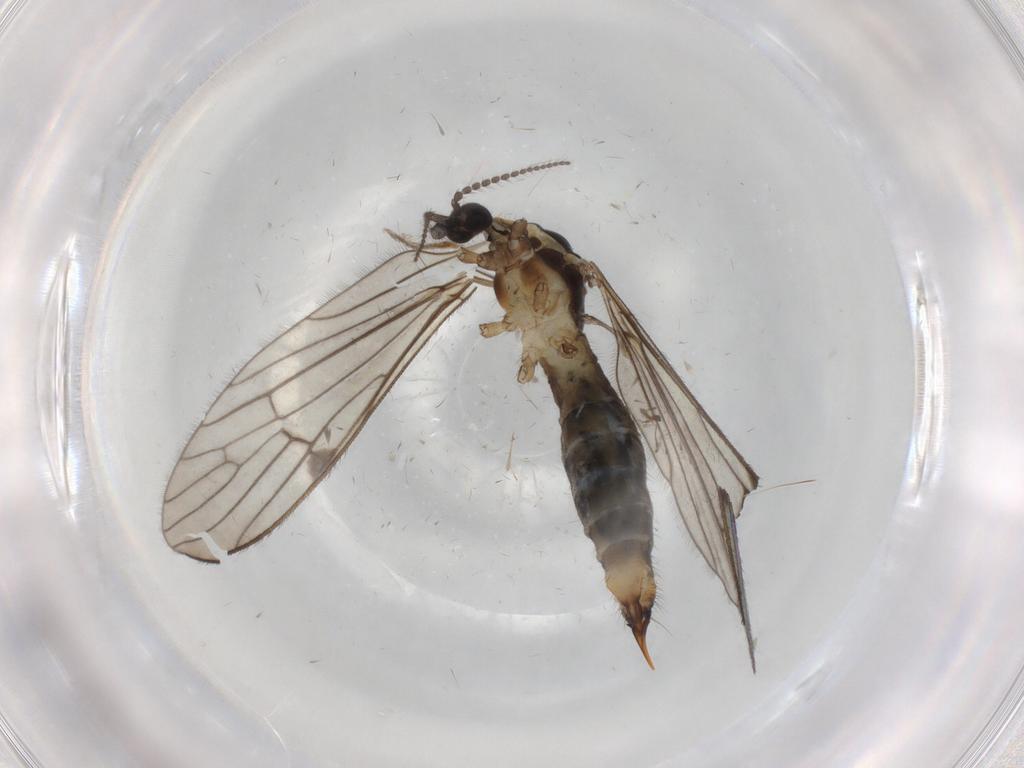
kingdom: Animalia
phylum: Arthropoda
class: Insecta
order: Diptera
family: Limoniidae
